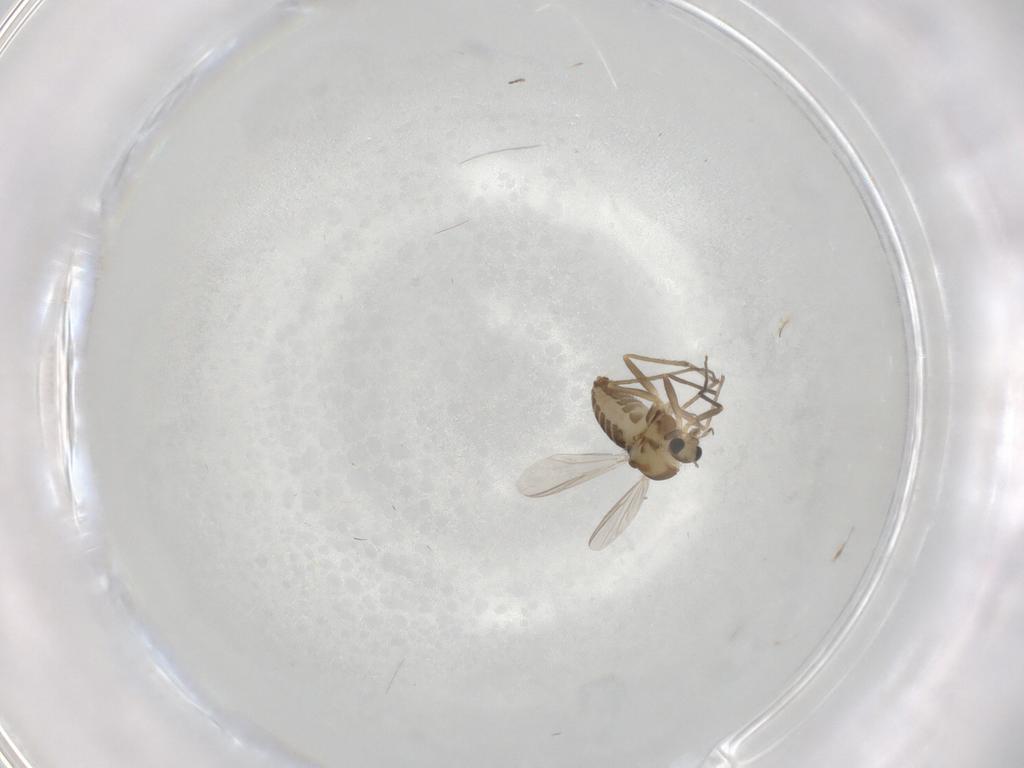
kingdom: Animalia
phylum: Arthropoda
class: Insecta
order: Diptera
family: Chironomidae
